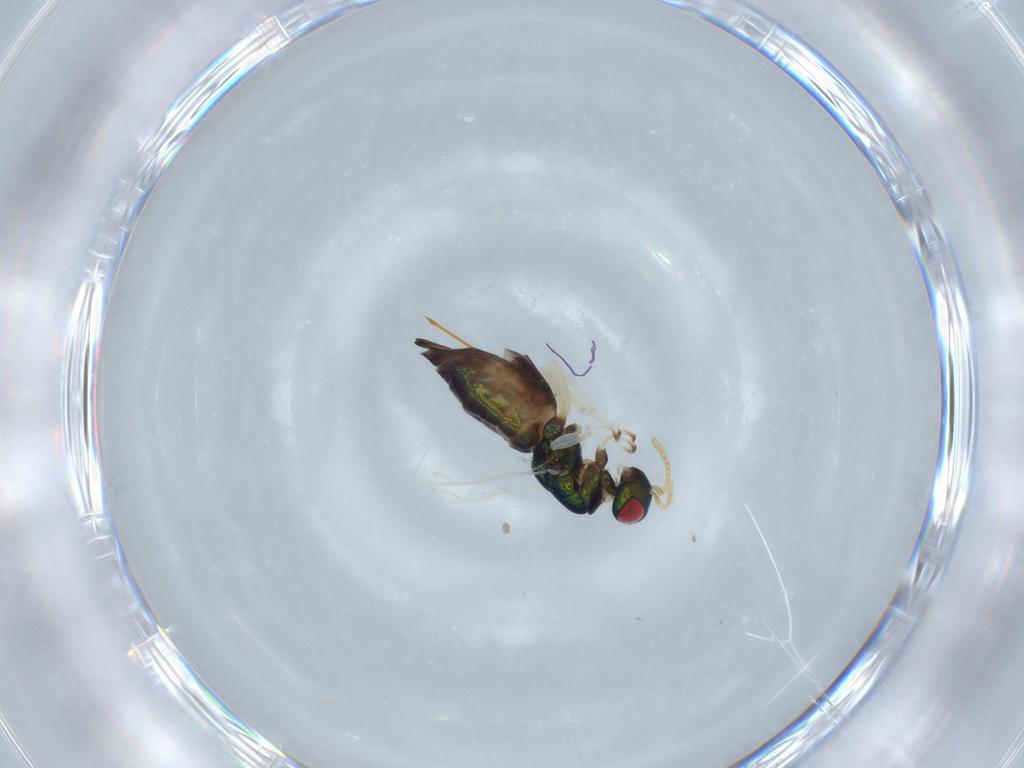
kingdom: Animalia
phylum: Arthropoda
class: Insecta
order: Hymenoptera
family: Pteromalidae
